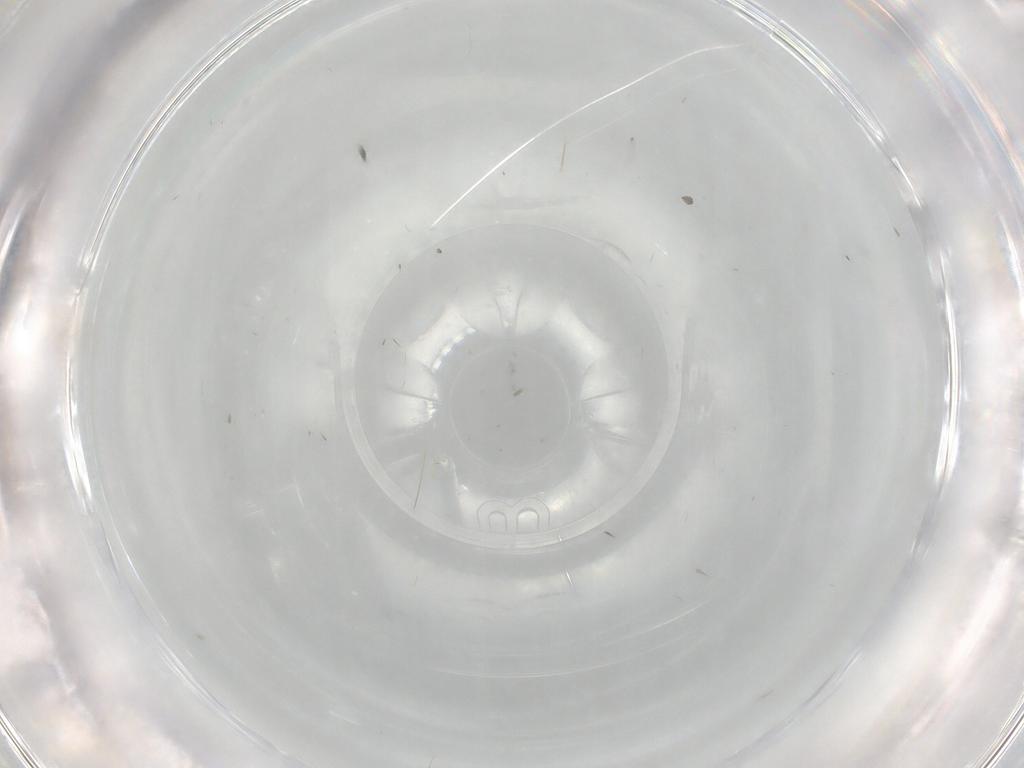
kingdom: Animalia
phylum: Arthropoda
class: Insecta
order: Diptera
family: Cecidomyiidae
